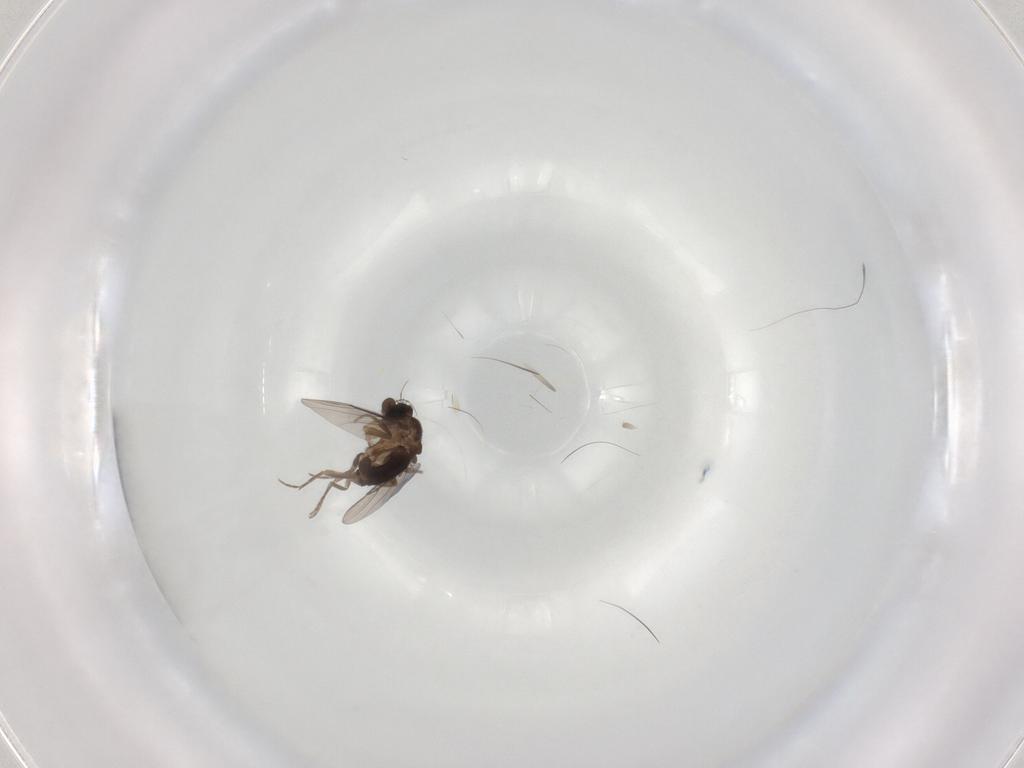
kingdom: Animalia
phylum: Arthropoda
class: Insecta
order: Diptera
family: Phoridae
